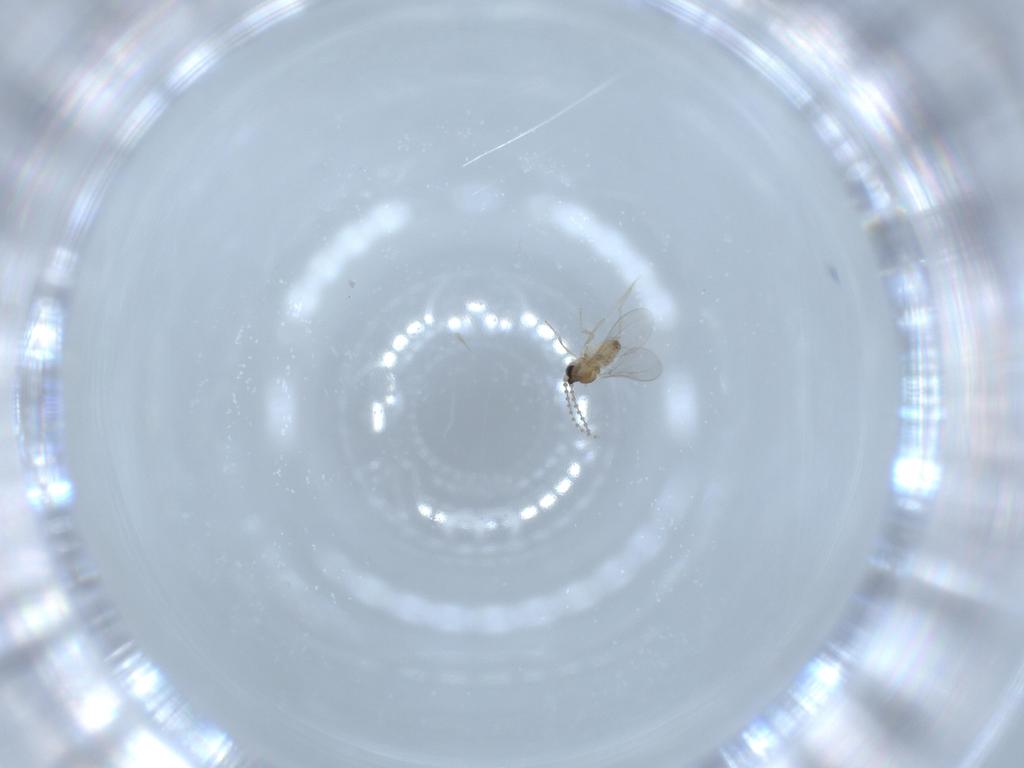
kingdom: Animalia
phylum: Arthropoda
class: Insecta
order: Diptera
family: Cecidomyiidae
